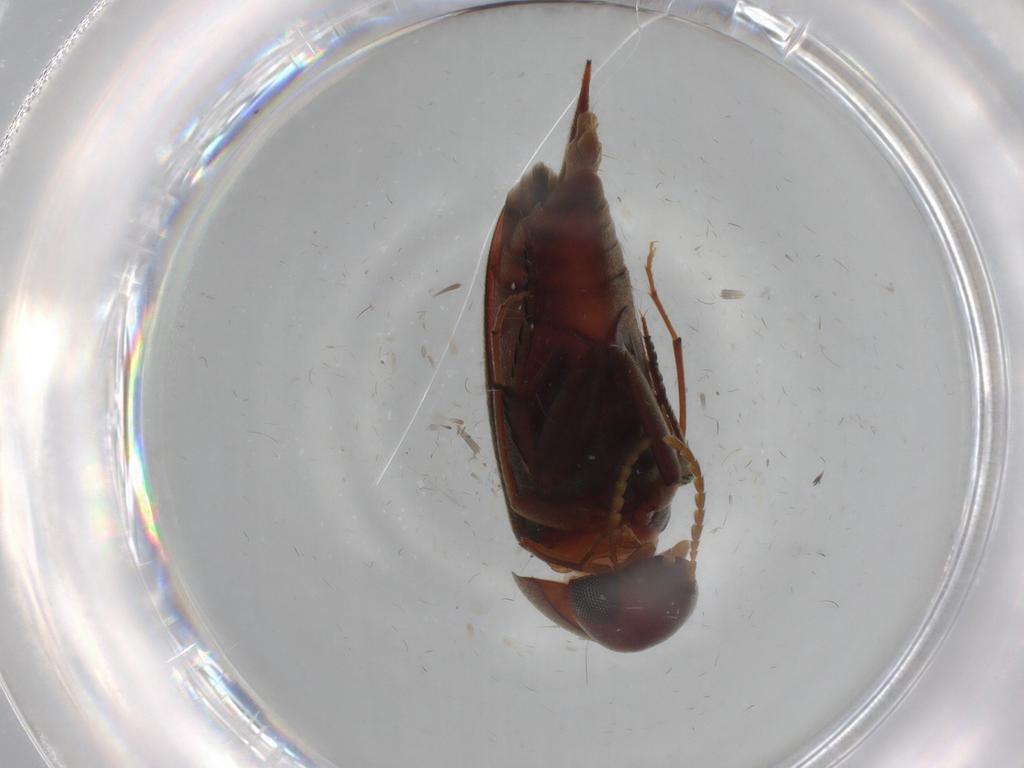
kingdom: Animalia
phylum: Arthropoda
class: Insecta
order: Coleoptera
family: Mordellidae
